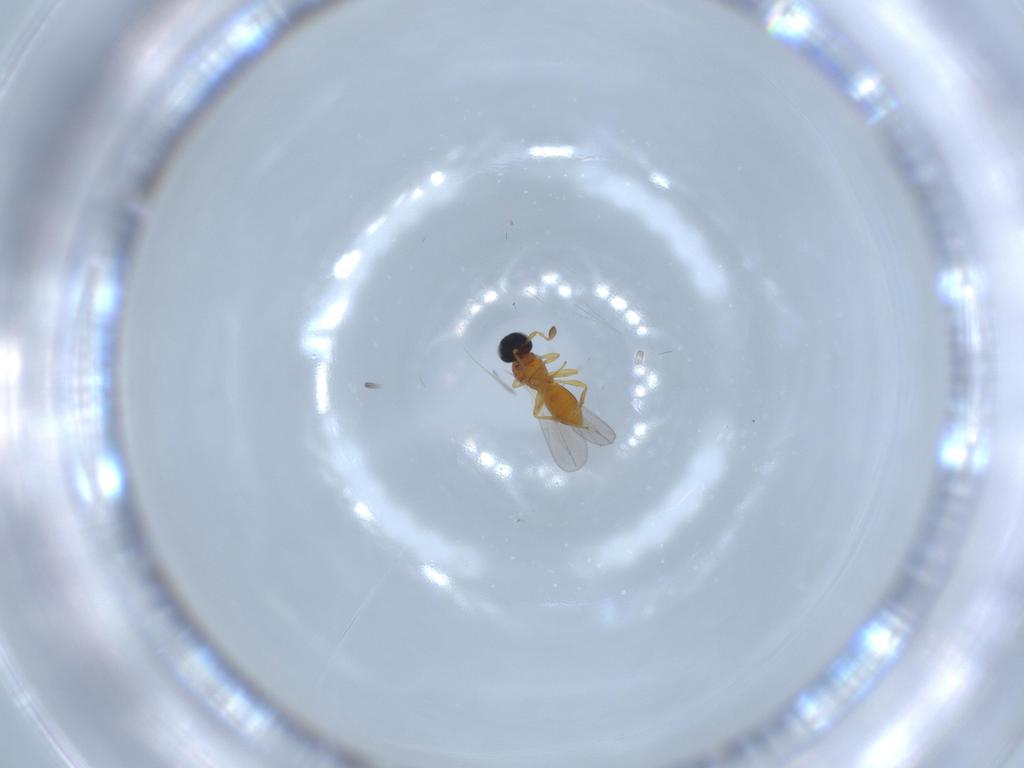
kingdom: Animalia
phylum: Arthropoda
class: Insecta
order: Hymenoptera
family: Platygastridae
